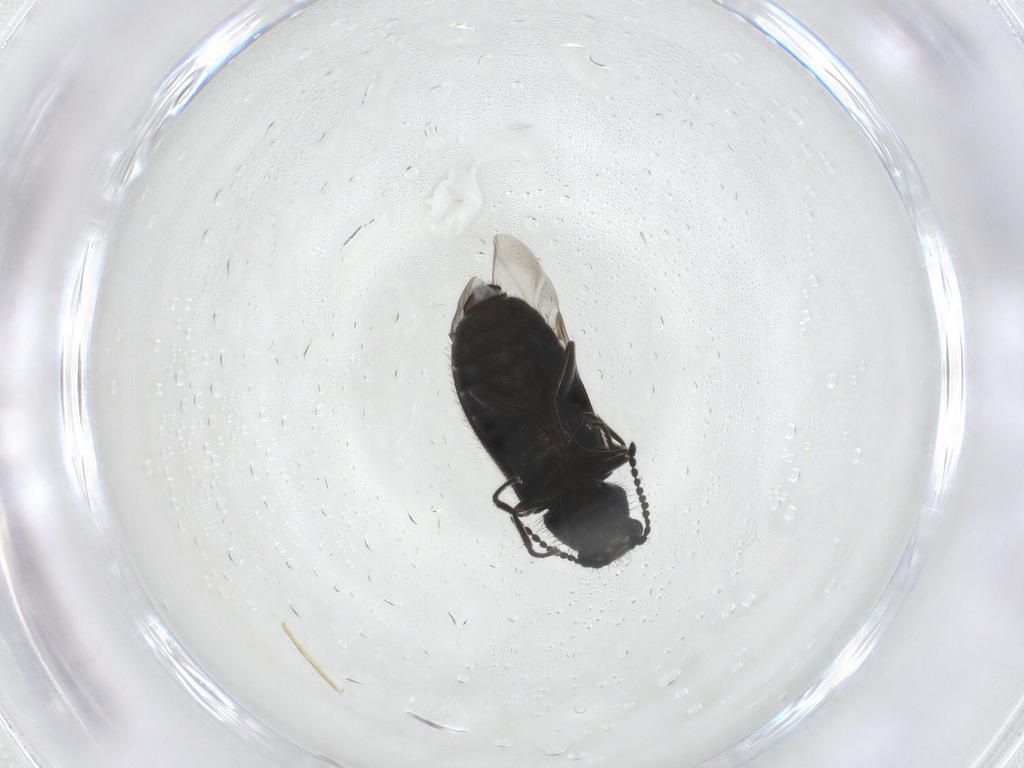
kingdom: Animalia
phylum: Arthropoda
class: Insecta
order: Coleoptera
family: Melyridae
